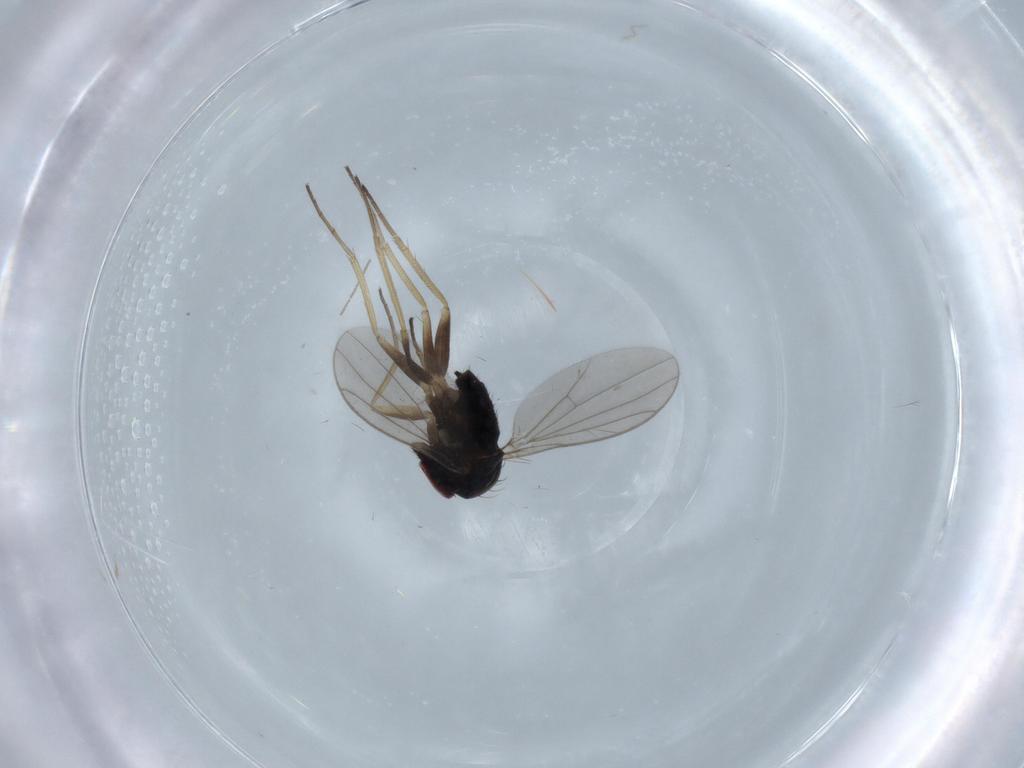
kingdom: Animalia
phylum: Arthropoda
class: Insecta
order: Diptera
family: Dolichopodidae
